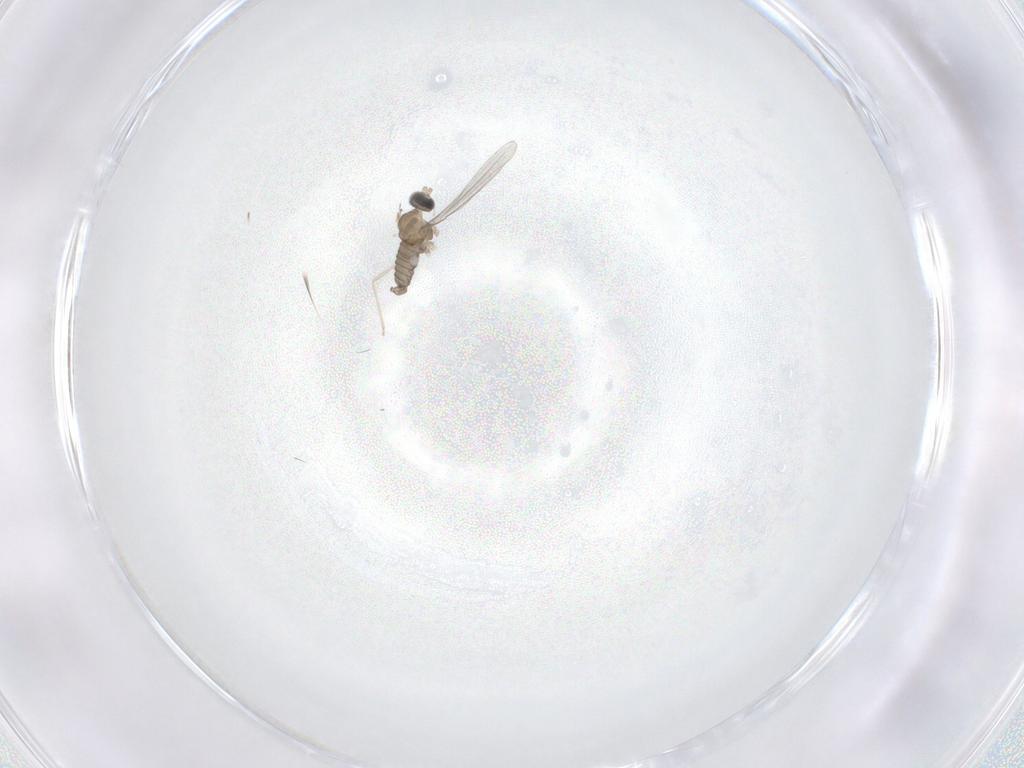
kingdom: Animalia
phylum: Arthropoda
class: Insecta
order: Diptera
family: Cecidomyiidae
